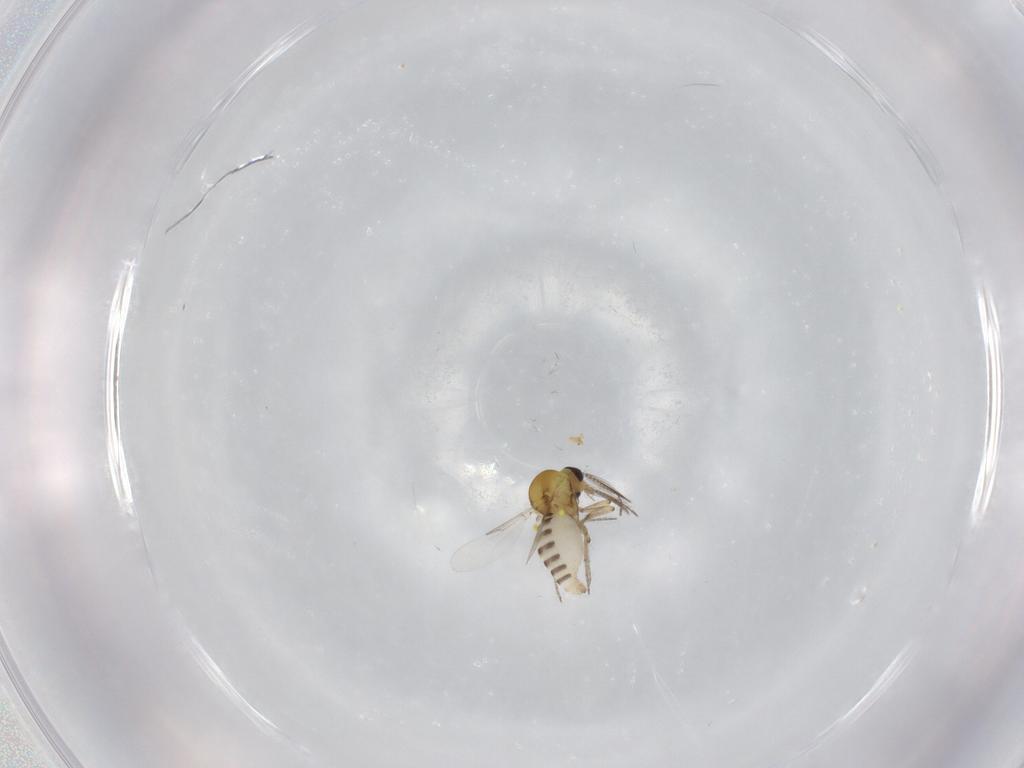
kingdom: Animalia
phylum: Arthropoda
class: Insecta
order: Diptera
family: Ceratopogonidae
